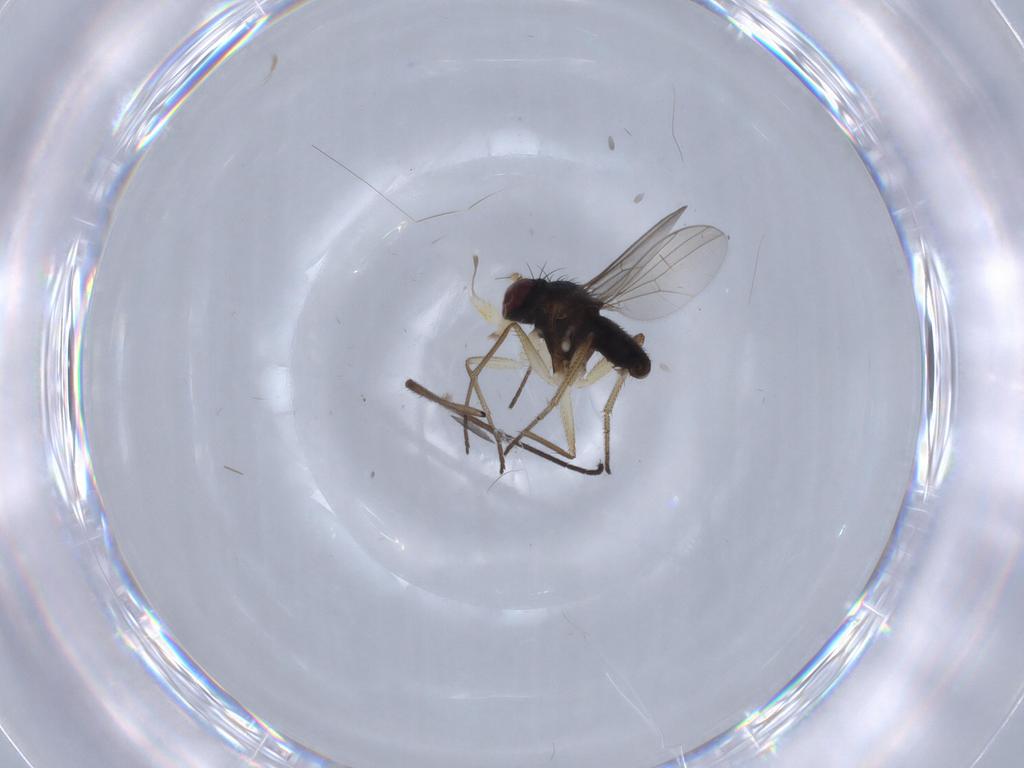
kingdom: Animalia
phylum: Arthropoda
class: Insecta
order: Diptera
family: Dolichopodidae
